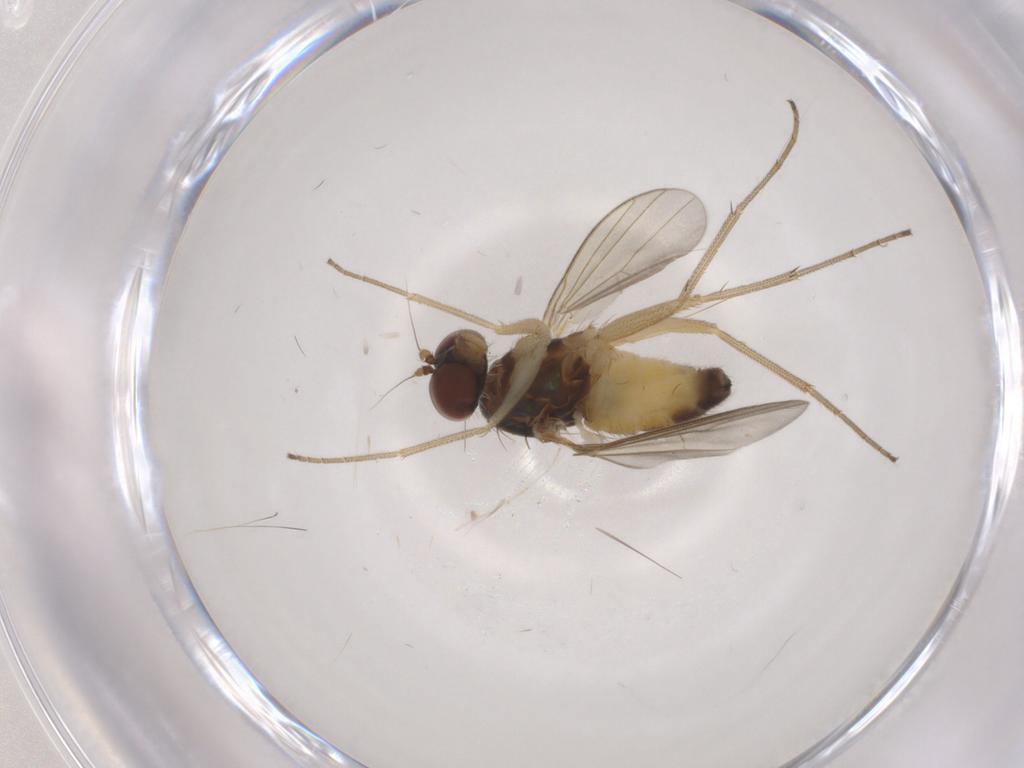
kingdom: Animalia
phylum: Arthropoda
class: Insecta
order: Diptera
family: Dolichopodidae
